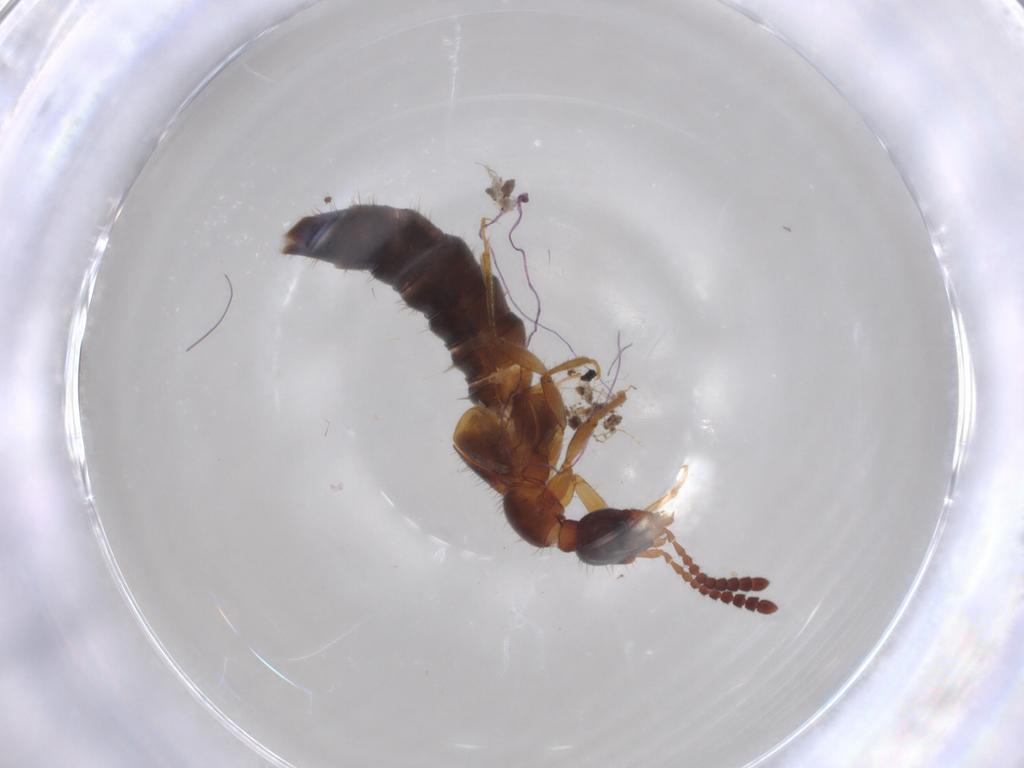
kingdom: Animalia
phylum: Arthropoda
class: Insecta
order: Coleoptera
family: Staphylinidae
